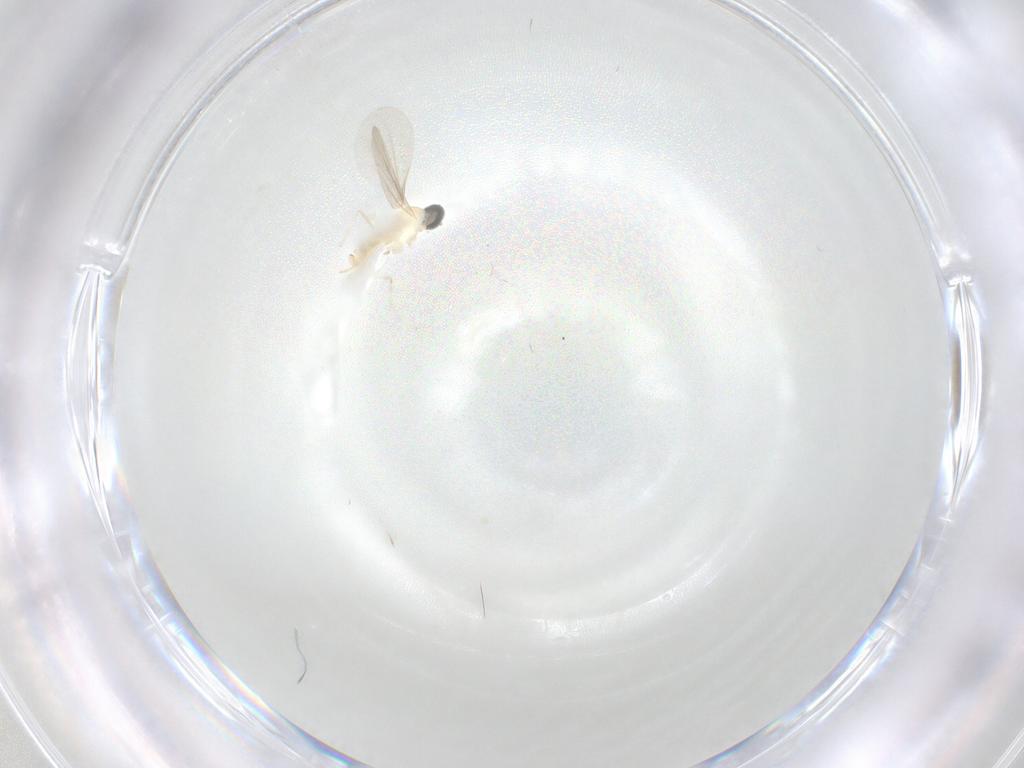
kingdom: Animalia
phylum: Arthropoda
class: Insecta
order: Diptera
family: Cecidomyiidae
